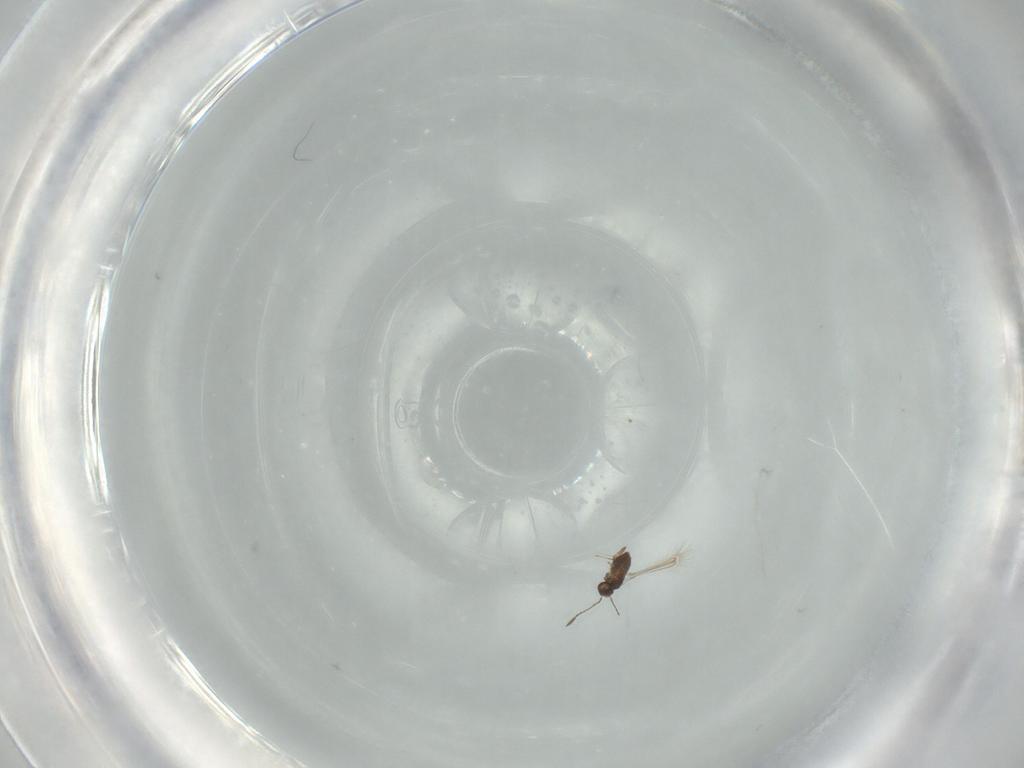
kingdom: Animalia
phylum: Arthropoda
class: Insecta
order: Hymenoptera
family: Mymaridae
